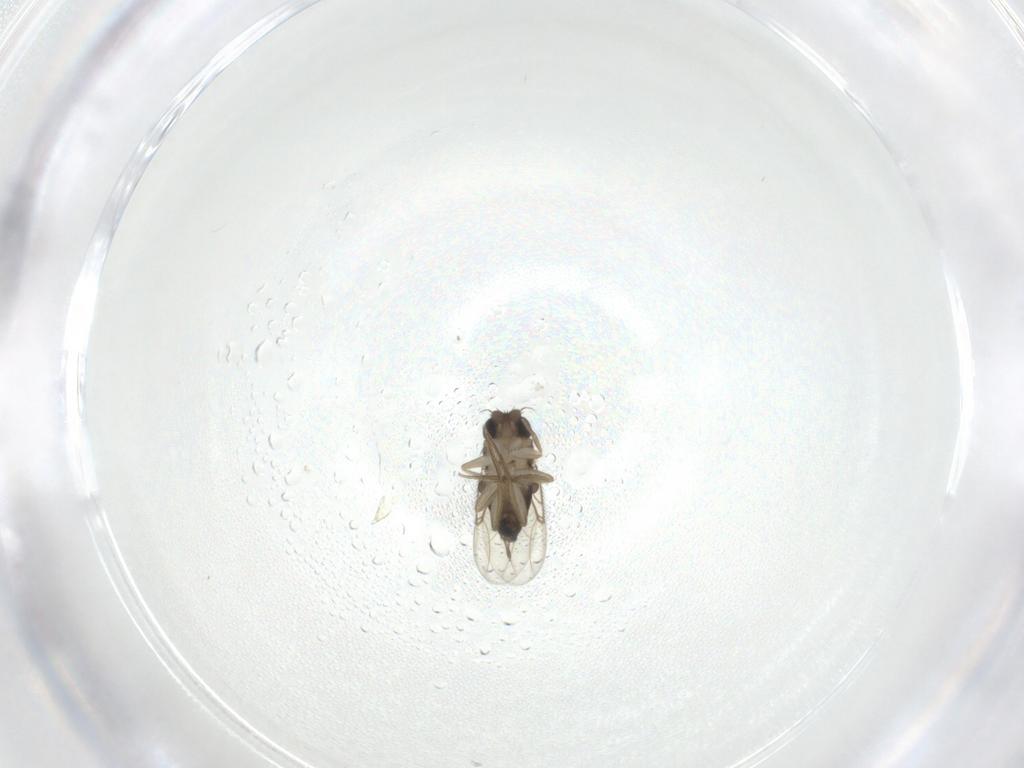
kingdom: Animalia
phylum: Arthropoda
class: Insecta
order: Diptera
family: Phoridae
